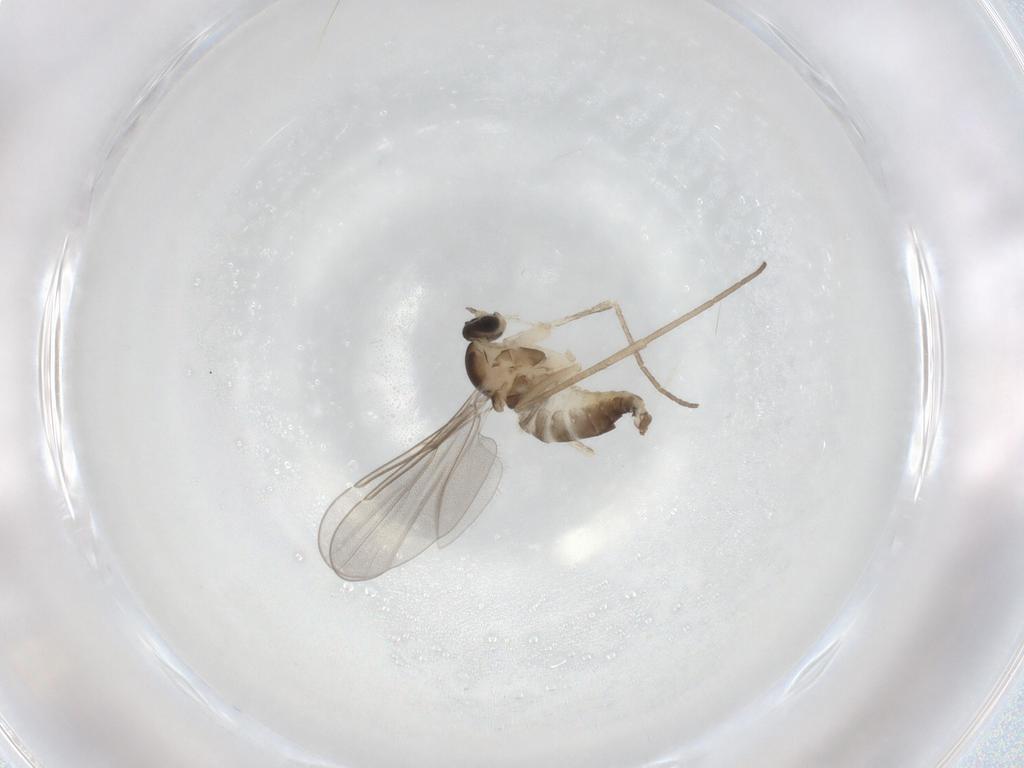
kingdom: Animalia
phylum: Arthropoda
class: Insecta
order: Diptera
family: Cecidomyiidae
